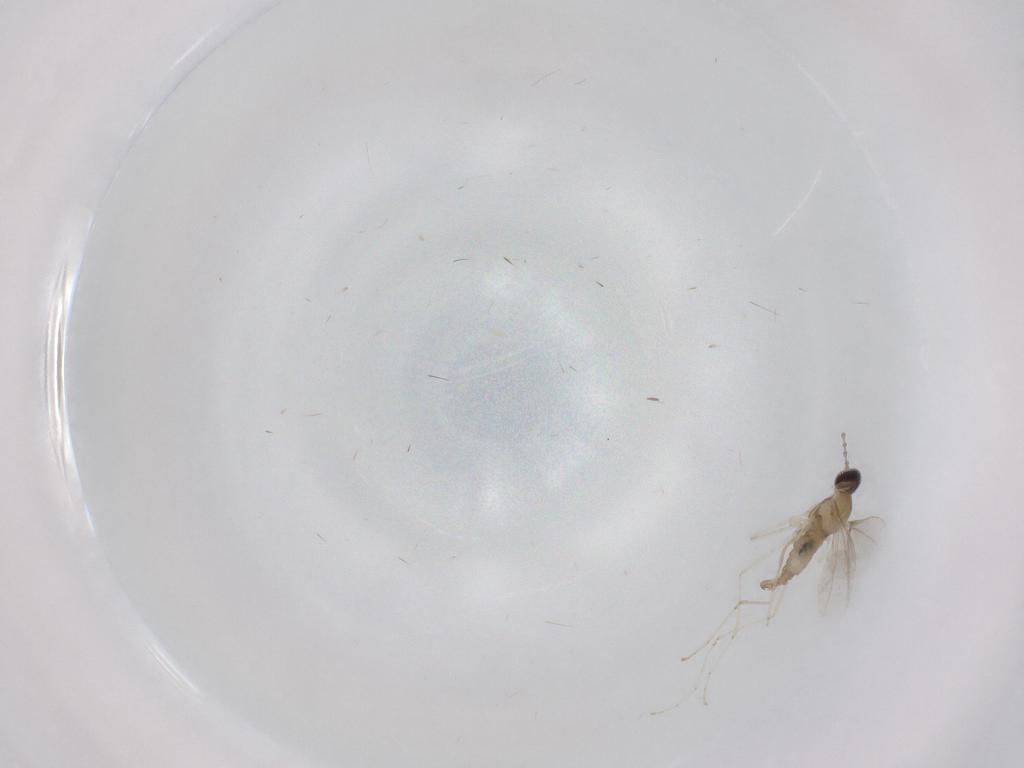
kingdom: Animalia
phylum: Arthropoda
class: Insecta
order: Diptera
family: Cecidomyiidae
